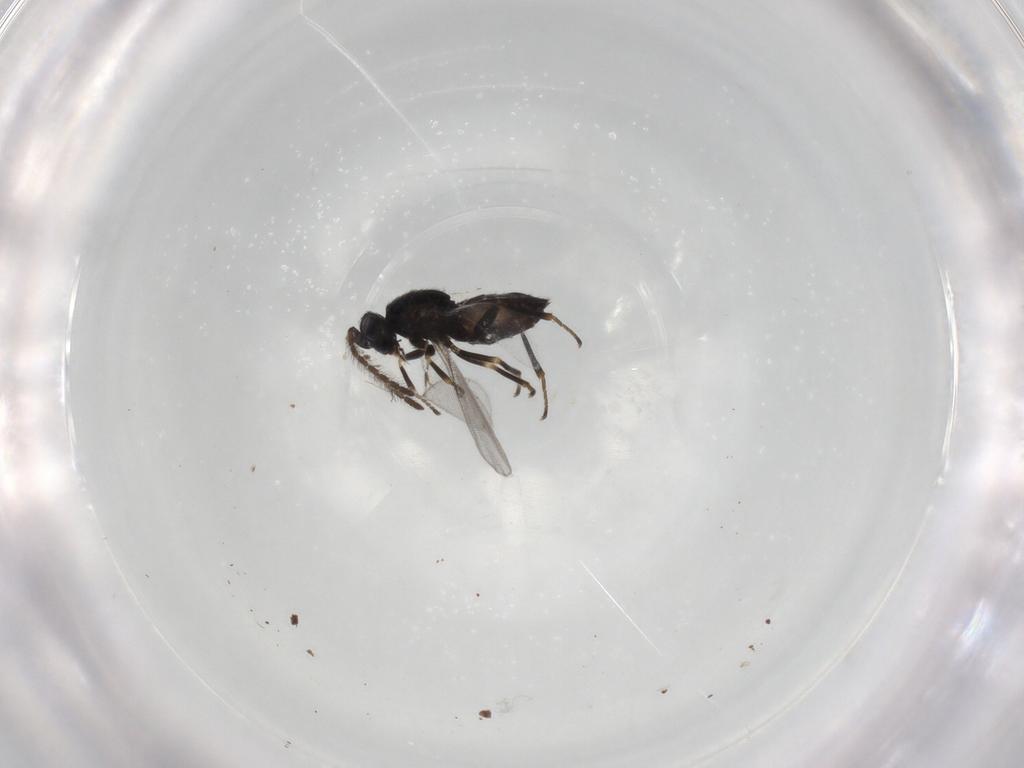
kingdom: Animalia
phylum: Arthropoda
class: Insecta
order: Hymenoptera
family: Encyrtidae
